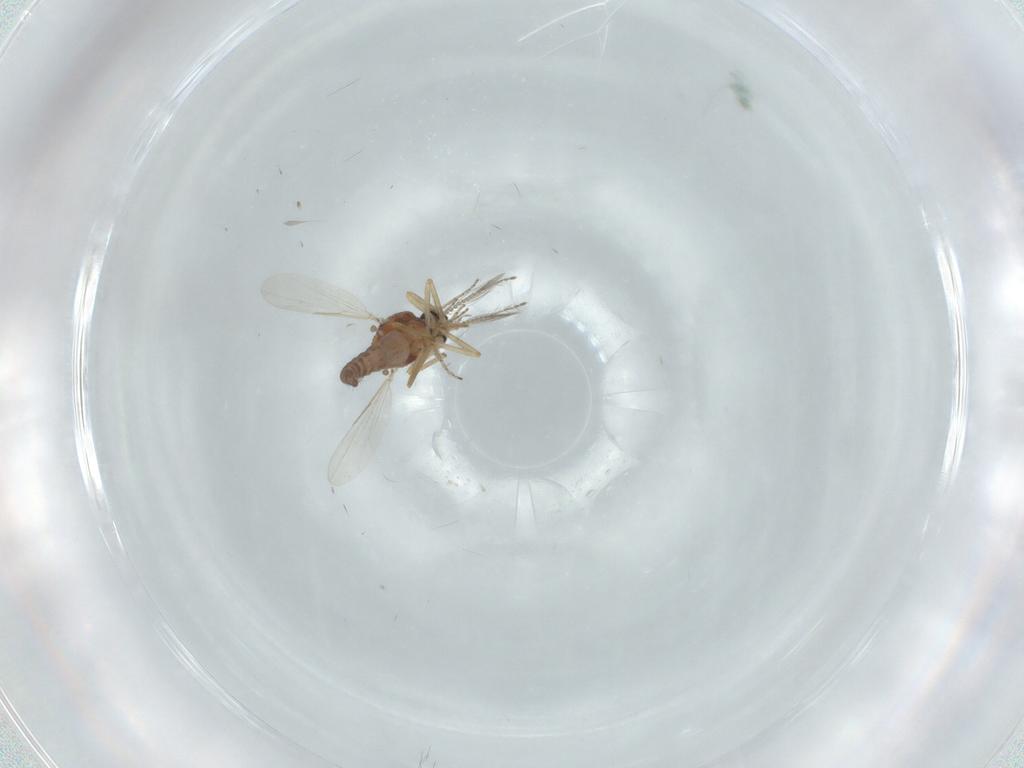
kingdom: Animalia
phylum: Arthropoda
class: Insecta
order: Diptera
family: Ceratopogonidae
